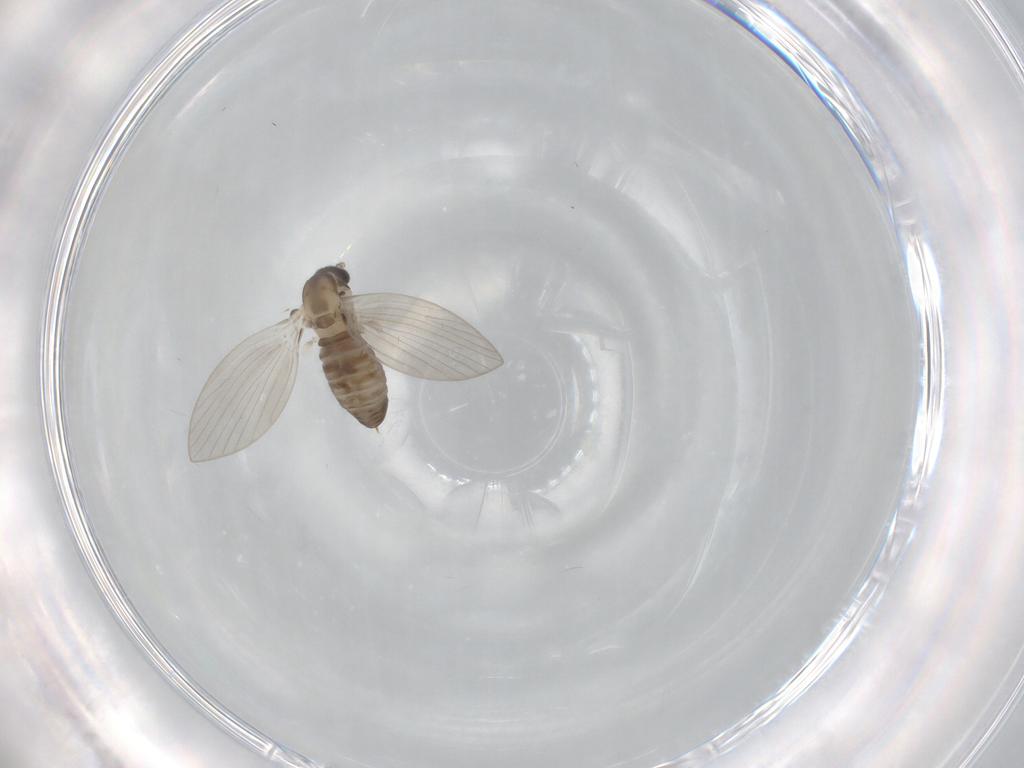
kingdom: Animalia
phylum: Arthropoda
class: Insecta
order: Diptera
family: Psychodidae
